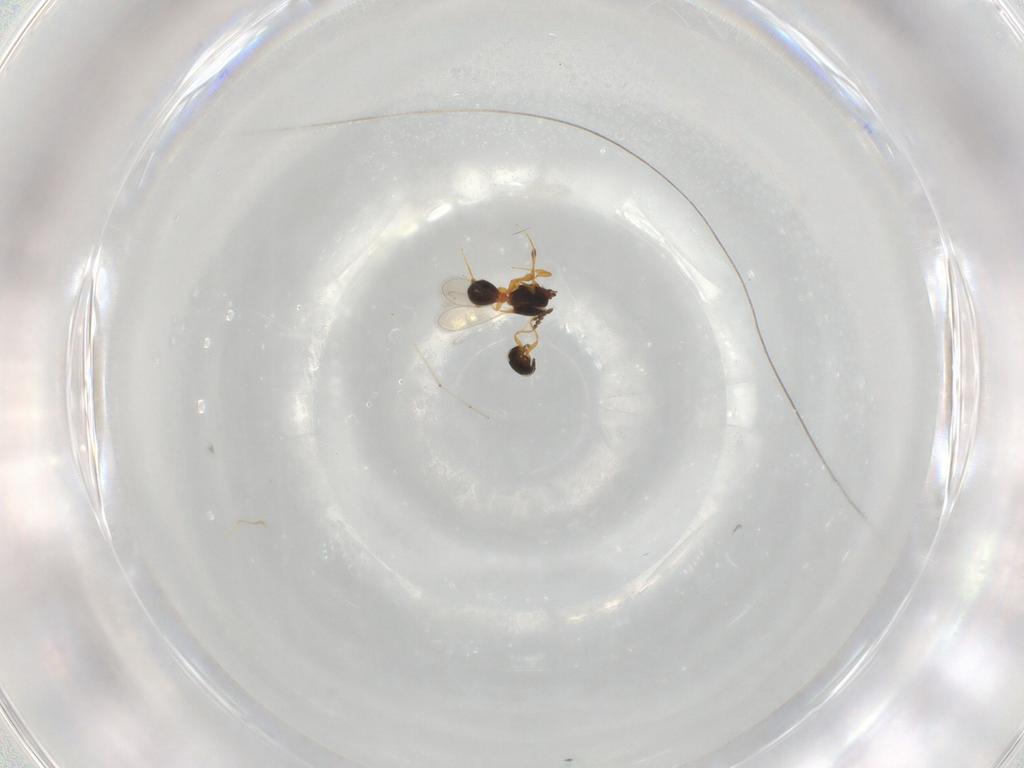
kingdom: Animalia
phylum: Arthropoda
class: Insecta
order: Hymenoptera
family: Platygastridae
